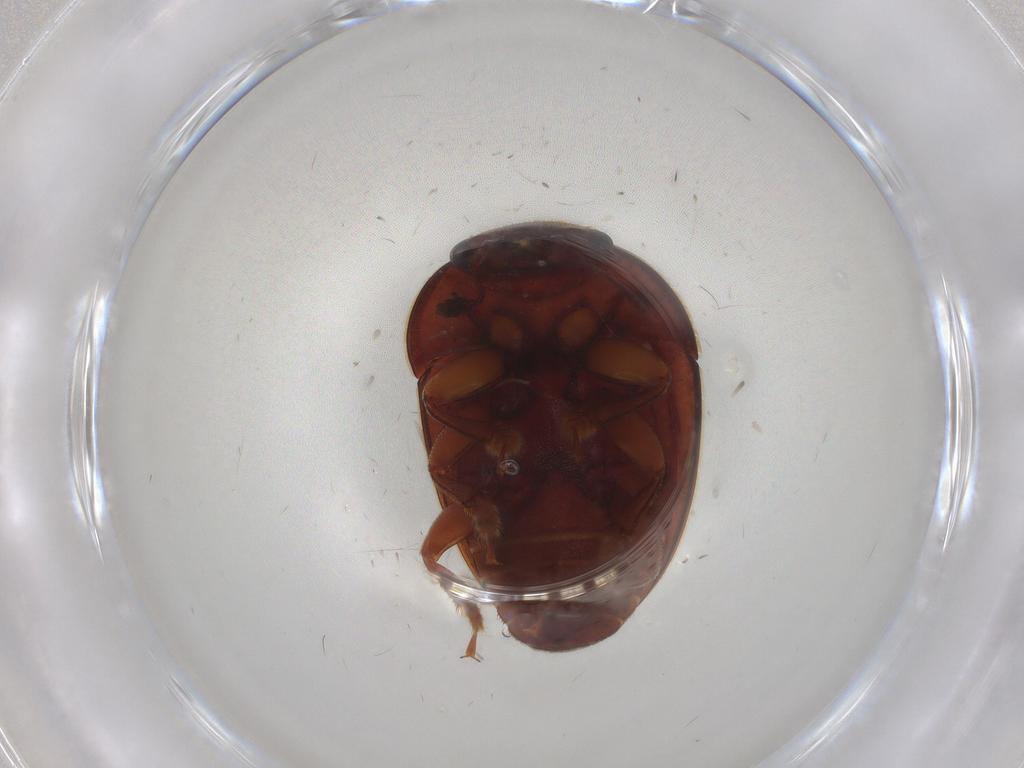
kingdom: Animalia
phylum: Arthropoda
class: Insecta
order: Coleoptera
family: Nitidulidae
